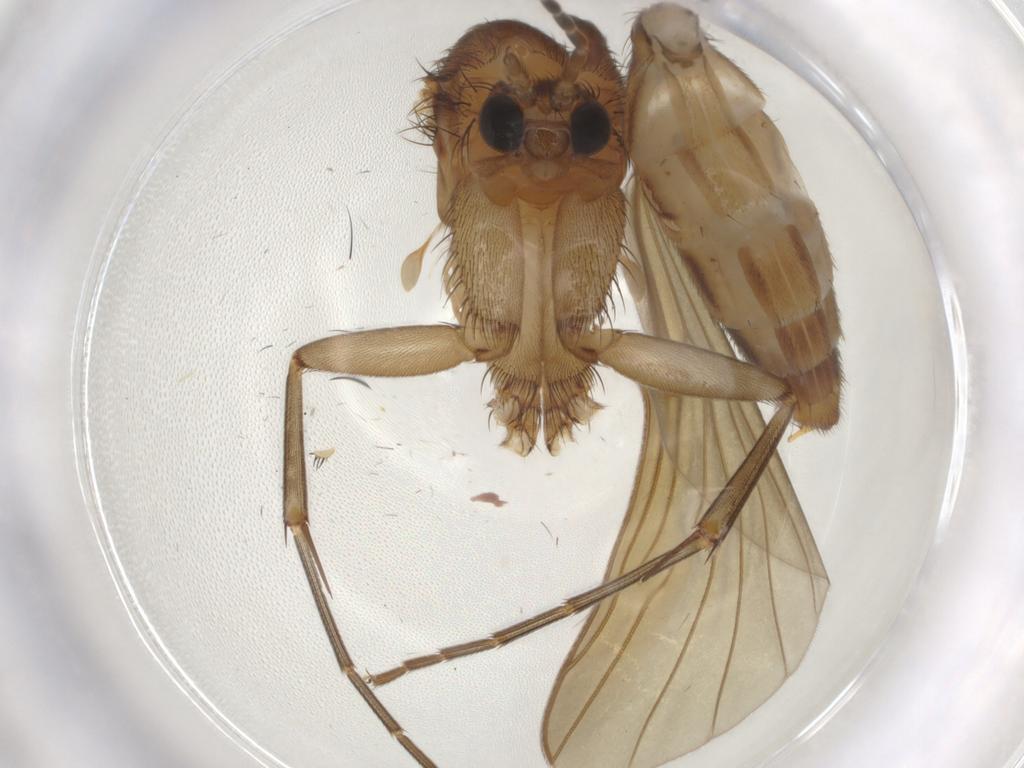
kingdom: Animalia
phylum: Arthropoda
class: Insecta
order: Diptera
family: Mycetophilidae
